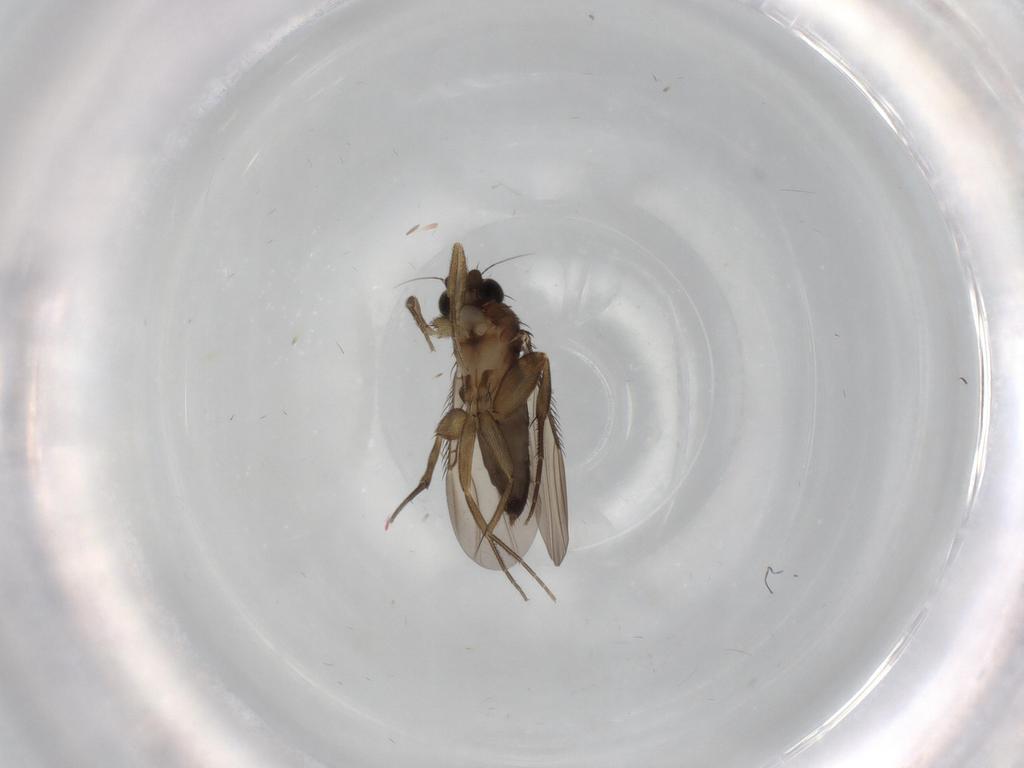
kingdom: Animalia
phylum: Arthropoda
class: Insecta
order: Diptera
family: Phoridae
